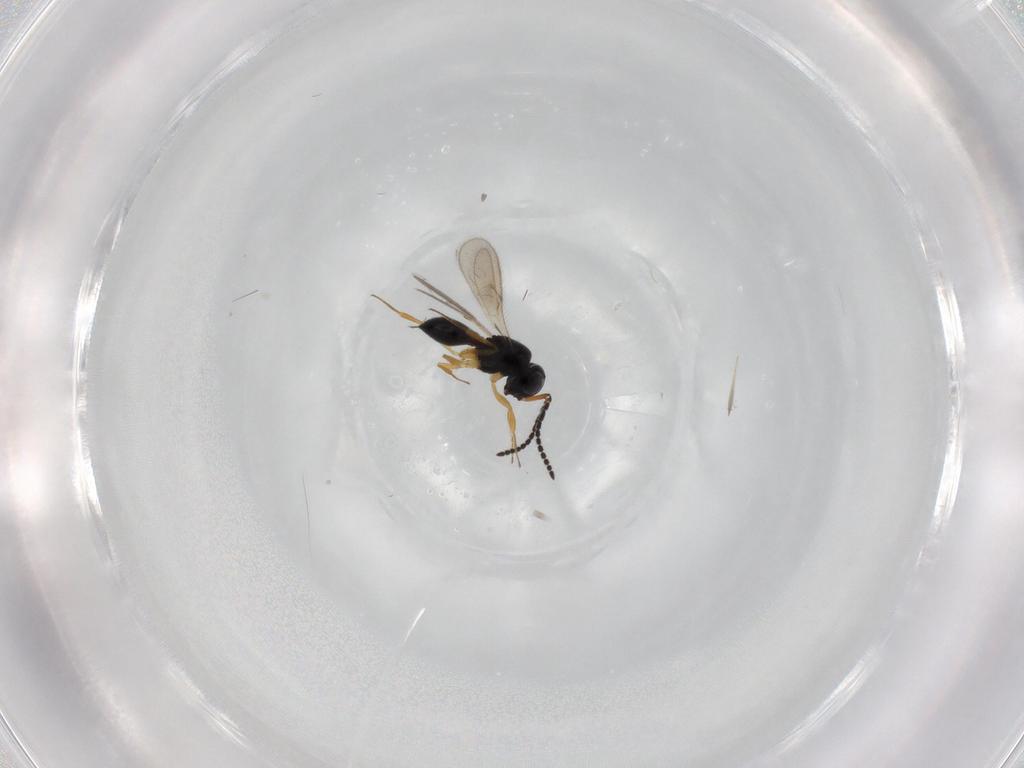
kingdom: Animalia
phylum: Arthropoda
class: Insecta
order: Hymenoptera
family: Scelionidae
